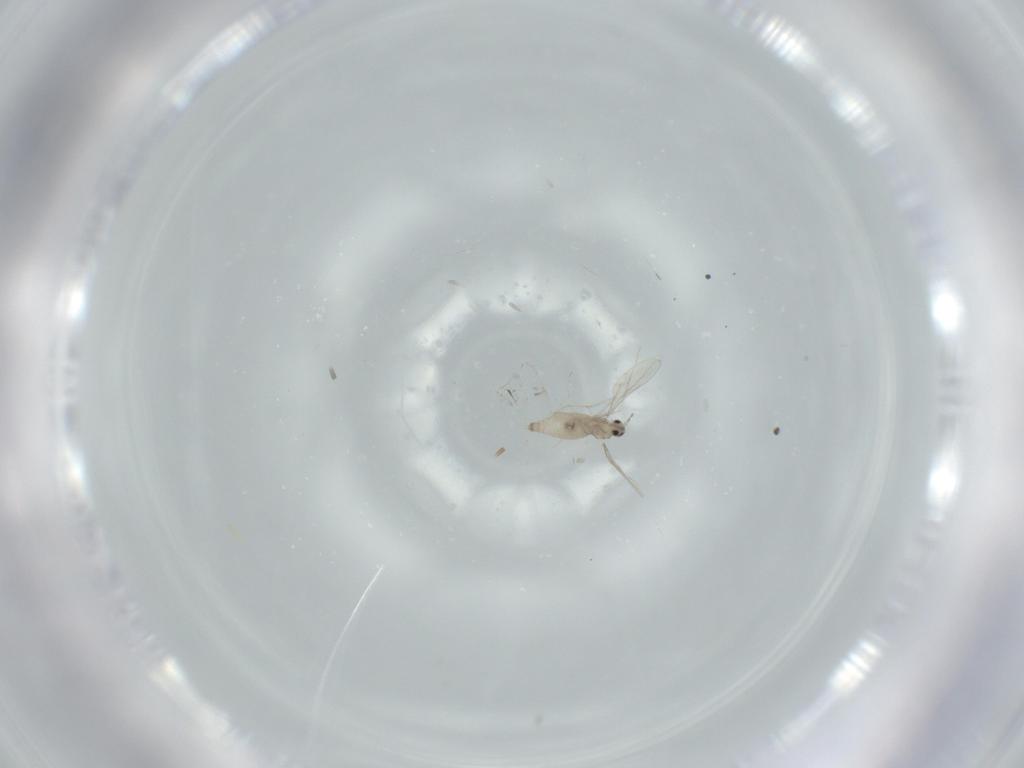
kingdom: Animalia
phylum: Arthropoda
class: Insecta
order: Diptera
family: Cecidomyiidae
